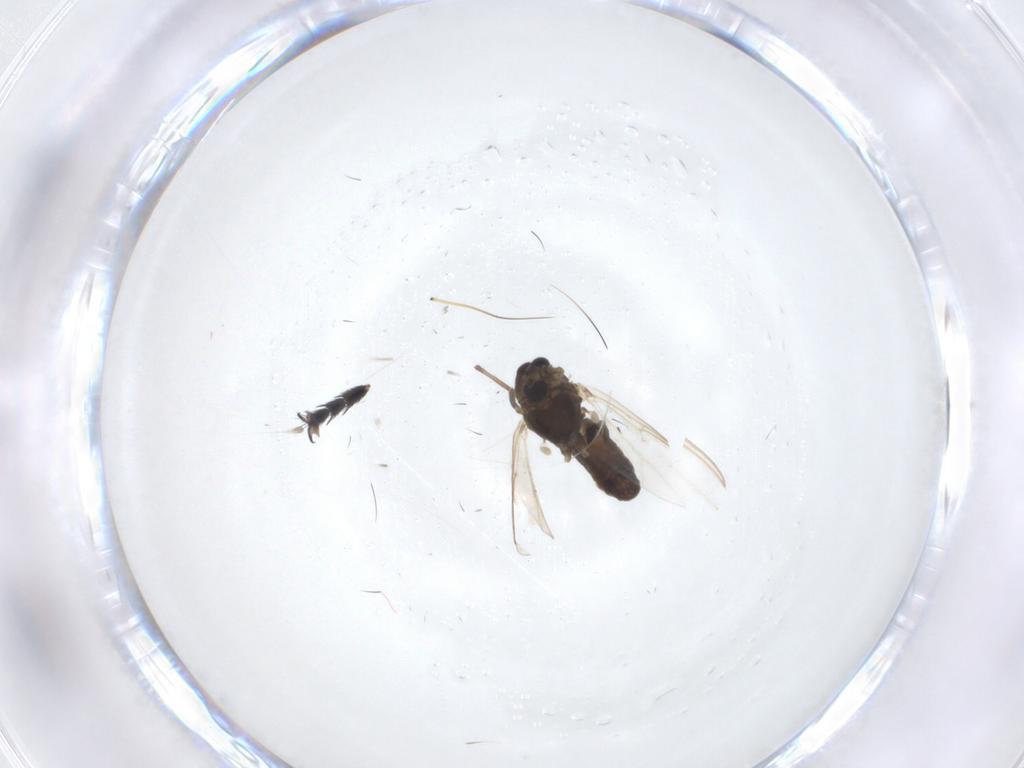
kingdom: Animalia
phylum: Arthropoda
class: Insecta
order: Diptera
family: Chironomidae
